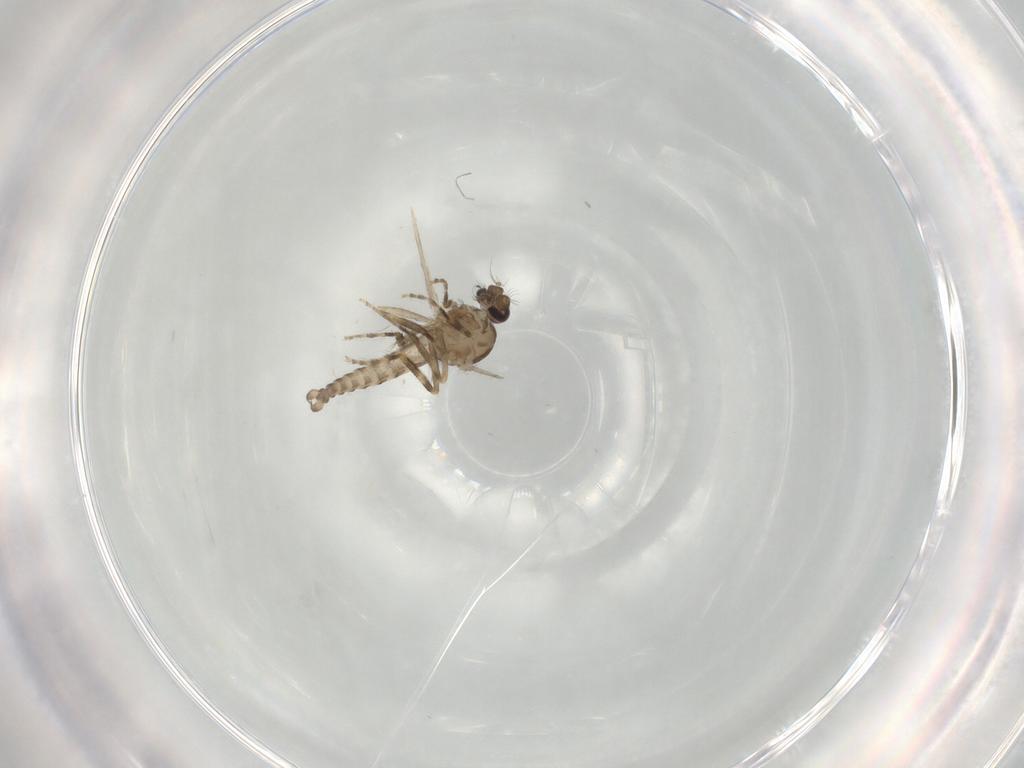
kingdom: Animalia
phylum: Arthropoda
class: Insecta
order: Diptera
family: Ceratopogonidae
